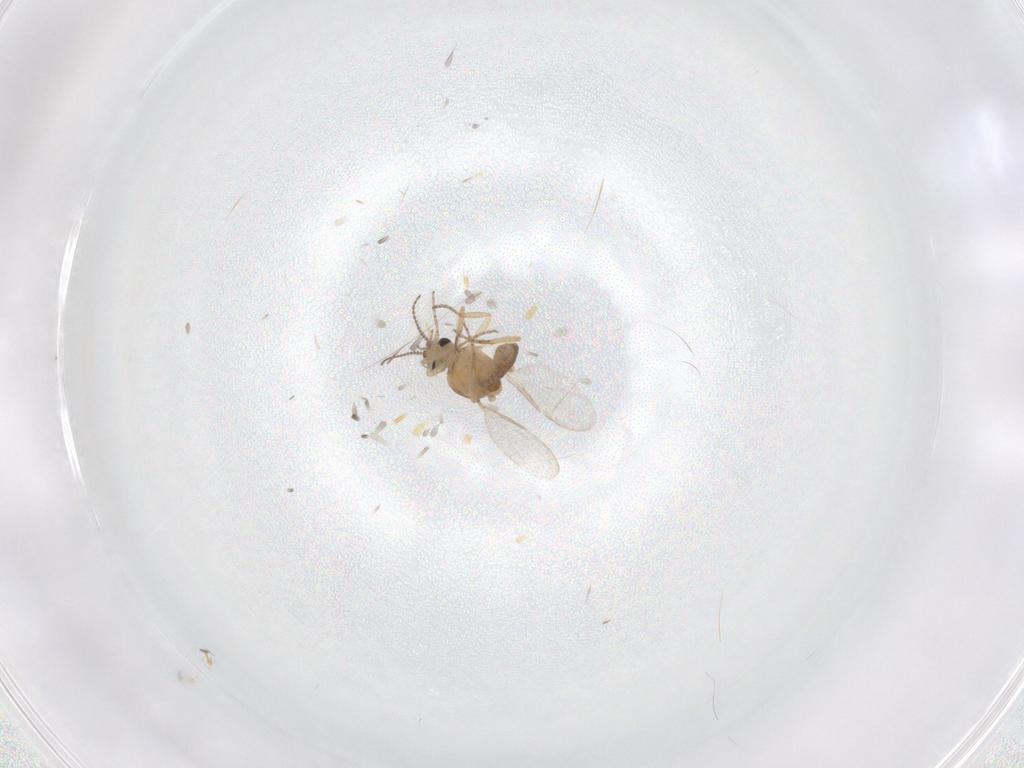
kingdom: Animalia
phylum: Arthropoda
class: Insecta
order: Diptera
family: Ceratopogonidae
